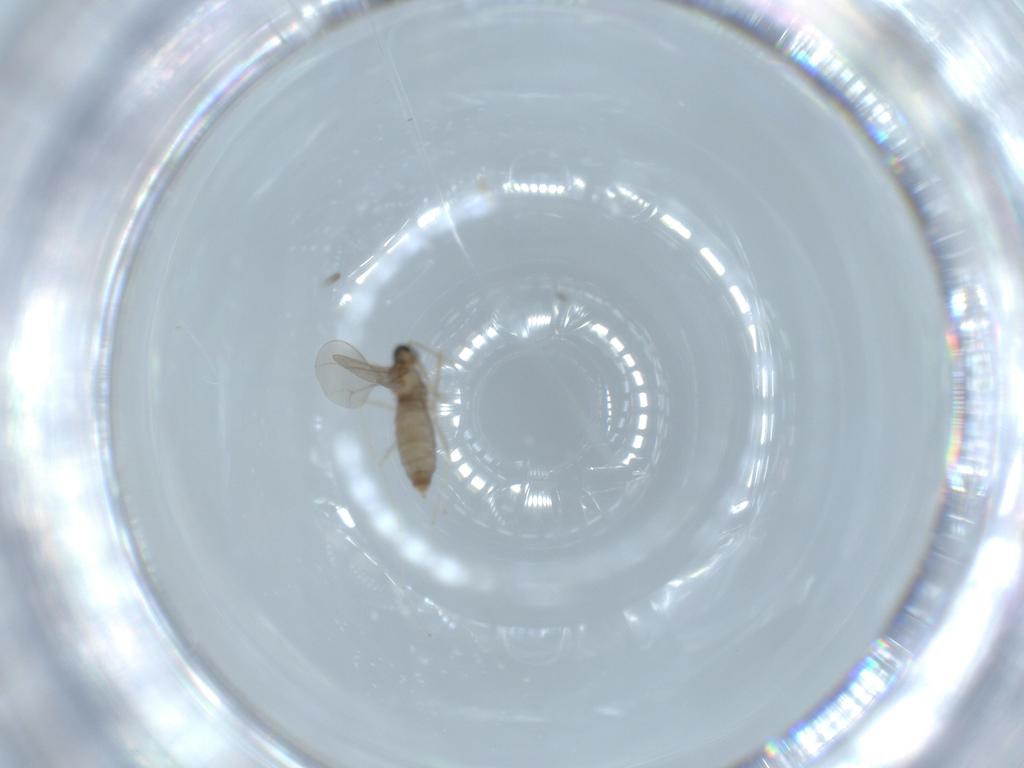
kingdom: Animalia
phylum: Arthropoda
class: Insecta
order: Diptera
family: Cecidomyiidae
